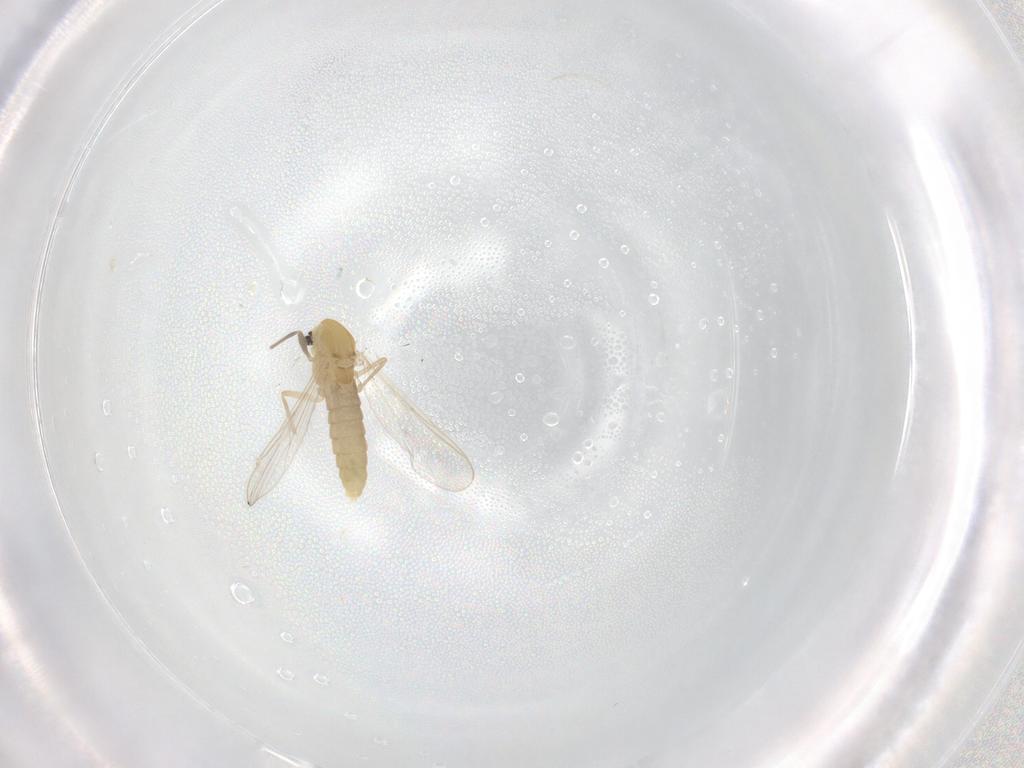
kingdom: Animalia
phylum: Arthropoda
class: Insecta
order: Diptera
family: Chironomidae
